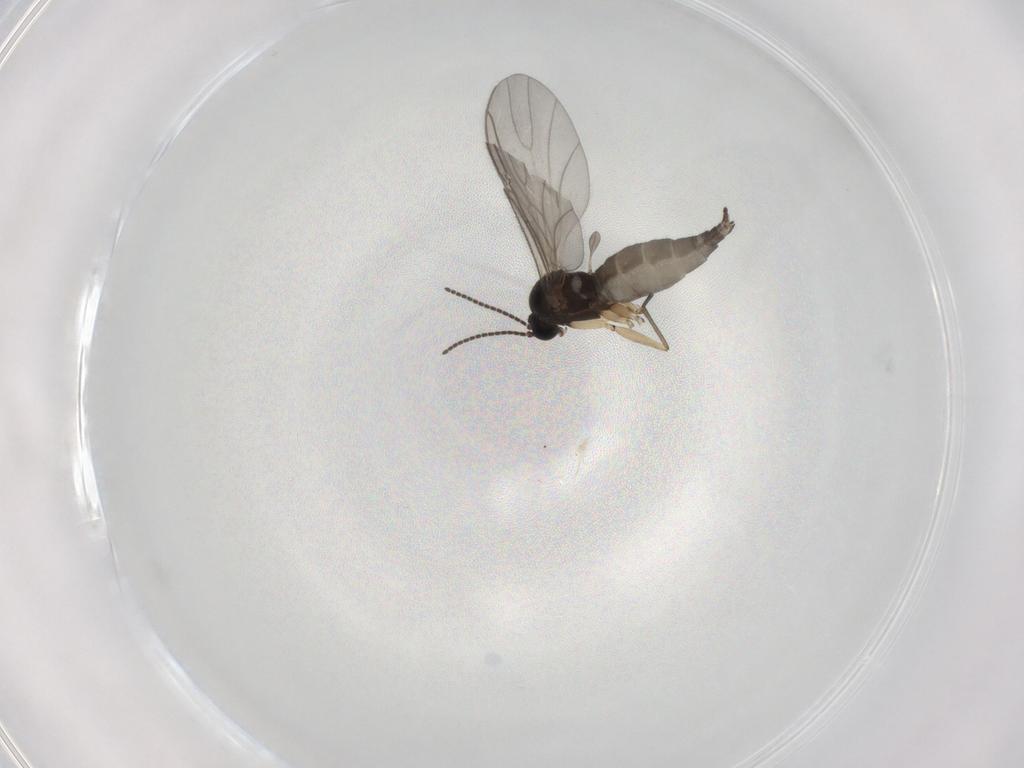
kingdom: Animalia
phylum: Arthropoda
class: Insecta
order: Diptera
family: Sciaridae
